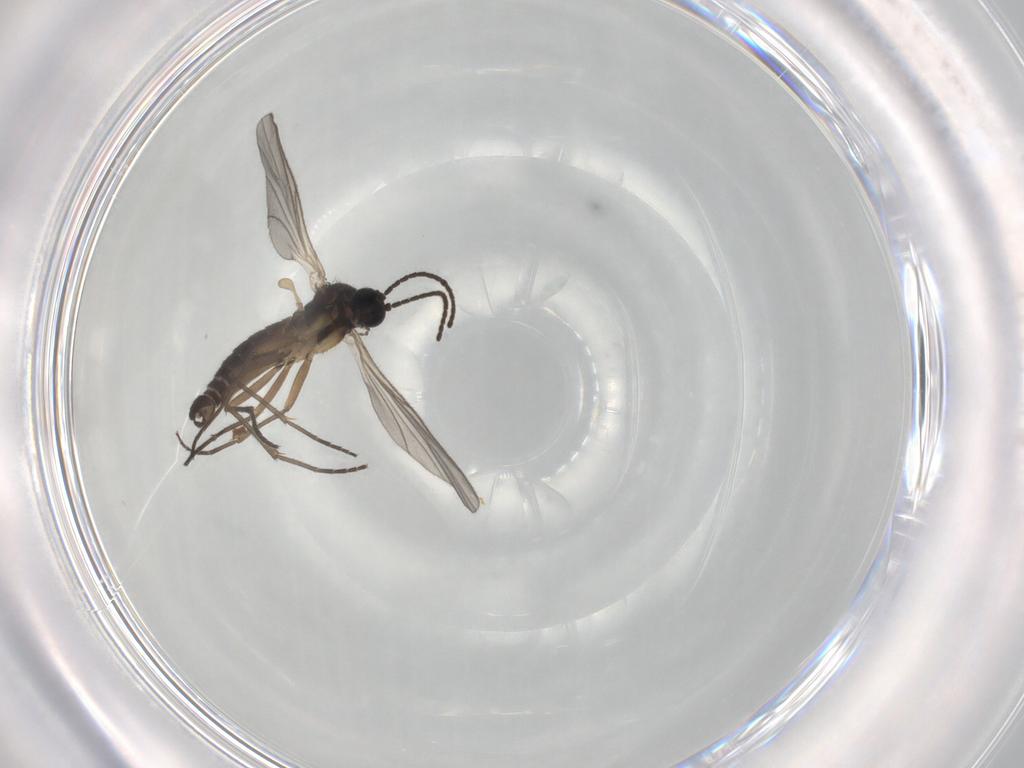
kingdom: Animalia
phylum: Arthropoda
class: Insecta
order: Diptera
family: Sciaridae
